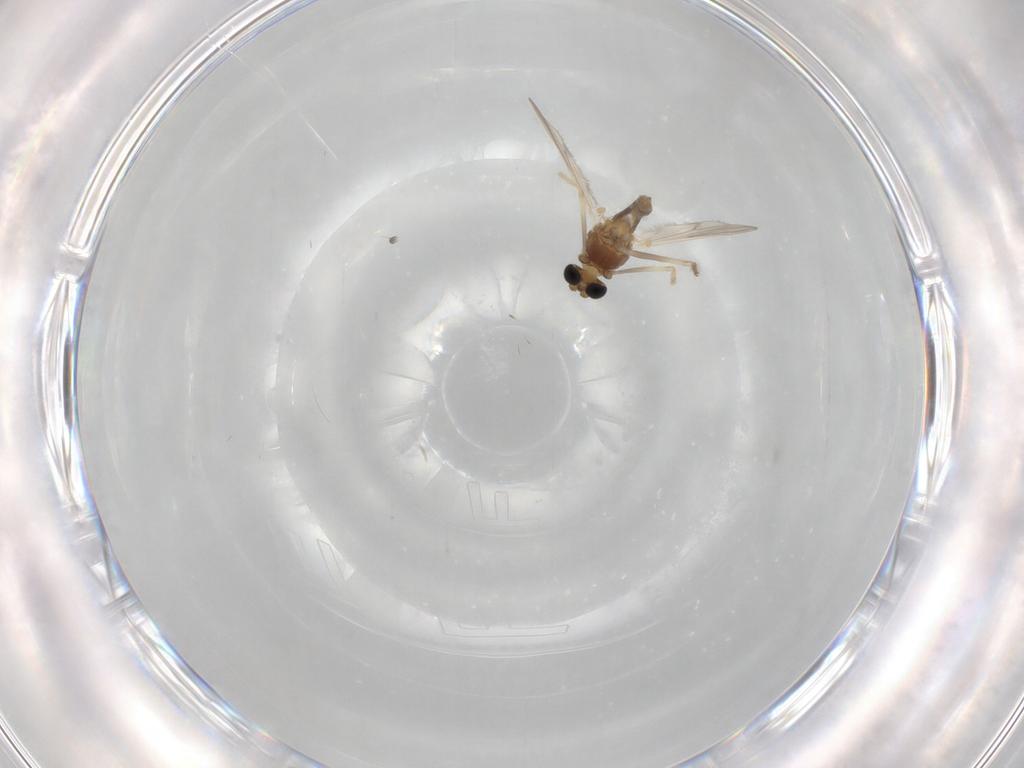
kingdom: Animalia
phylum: Arthropoda
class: Insecta
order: Diptera
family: Chironomidae
